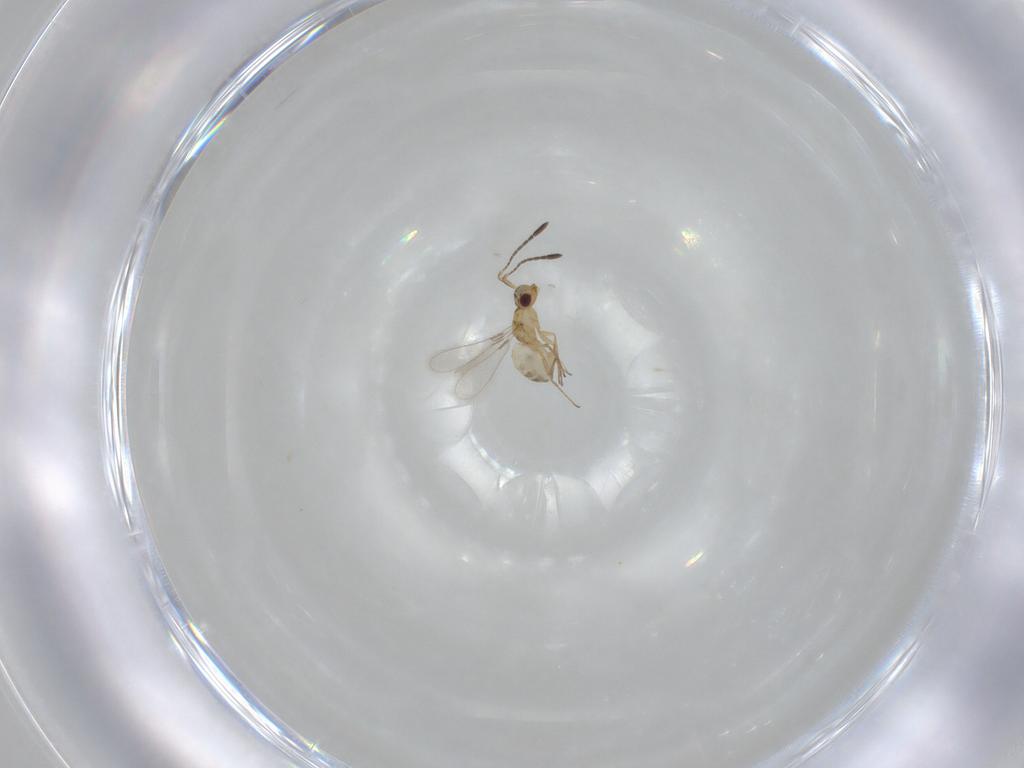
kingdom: Animalia
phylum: Arthropoda
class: Insecta
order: Hymenoptera
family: Mymaridae
